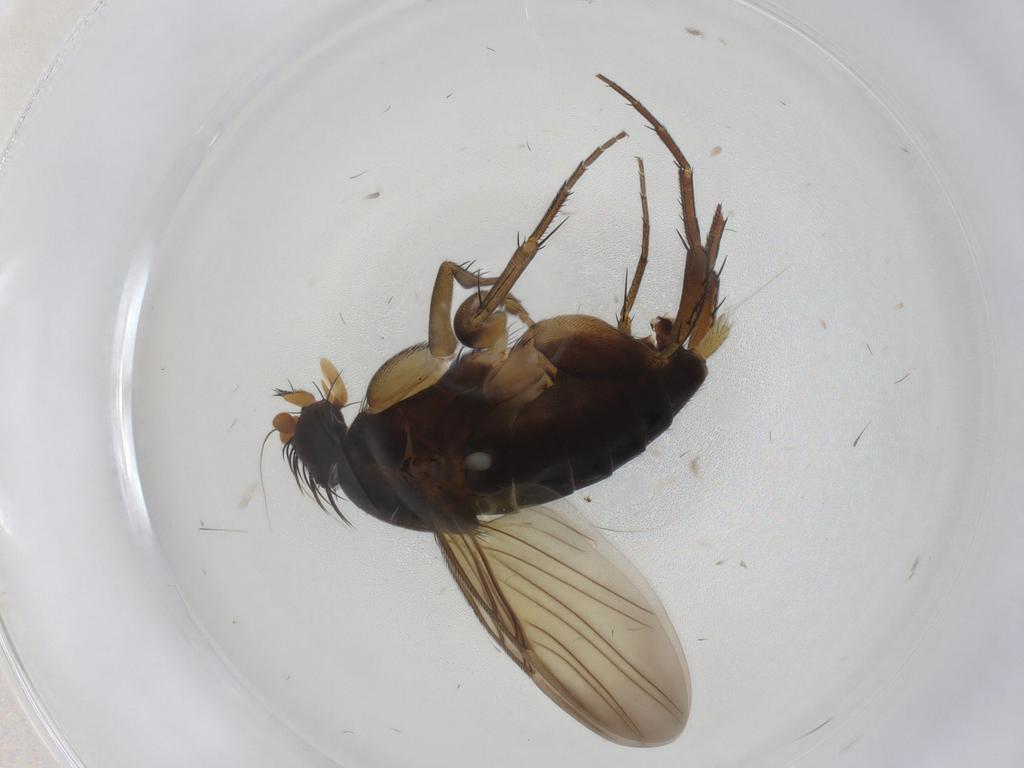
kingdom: Animalia
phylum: Arthropoda
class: Insecta
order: Diptera
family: Phoridae
